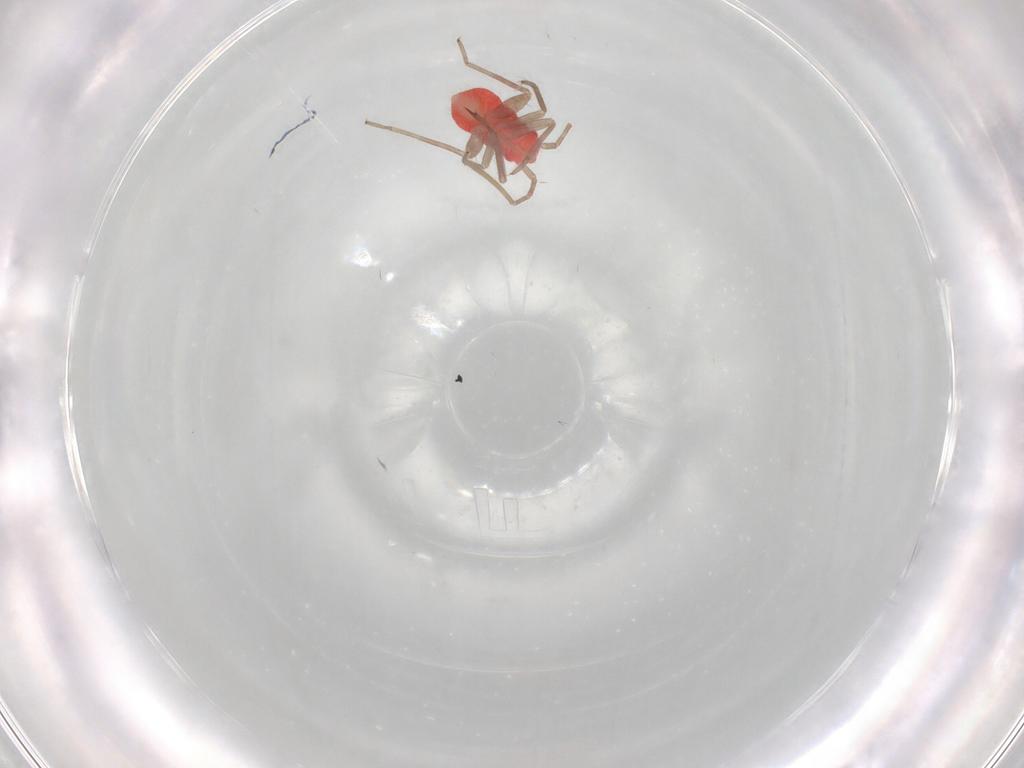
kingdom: Animalia
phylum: Arthropoda
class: Insecta
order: Hemiptera
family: Miridae
